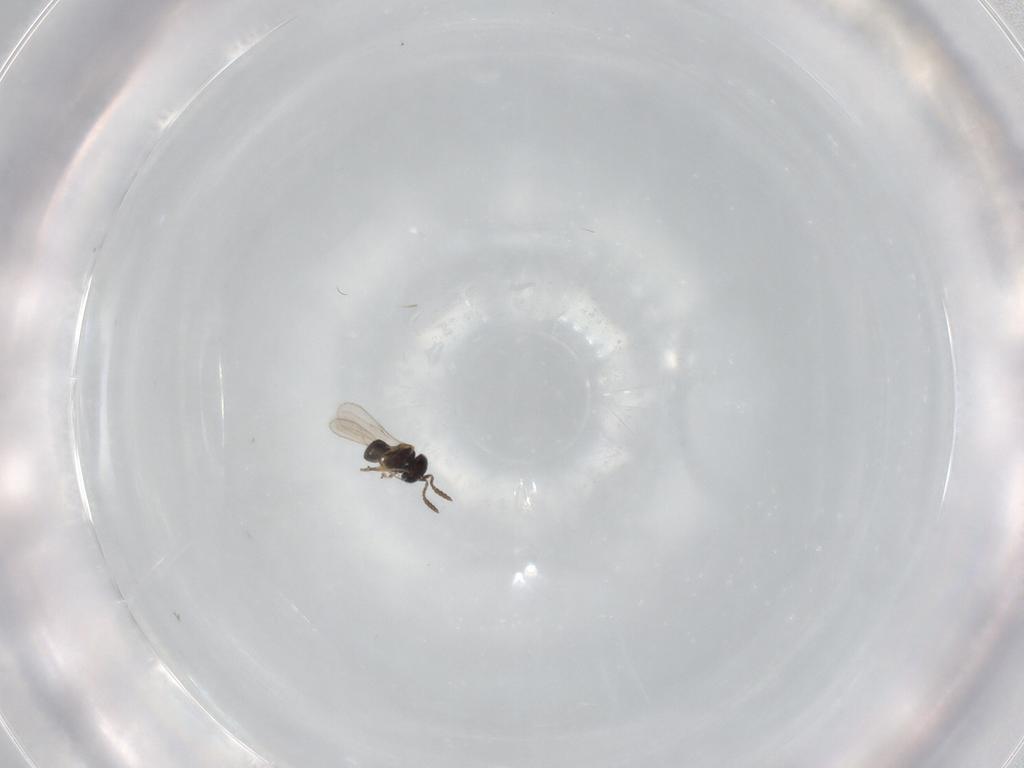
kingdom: Animalia
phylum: Arthropoda
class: Insecta
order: Hymenoptera
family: Scelionidae
